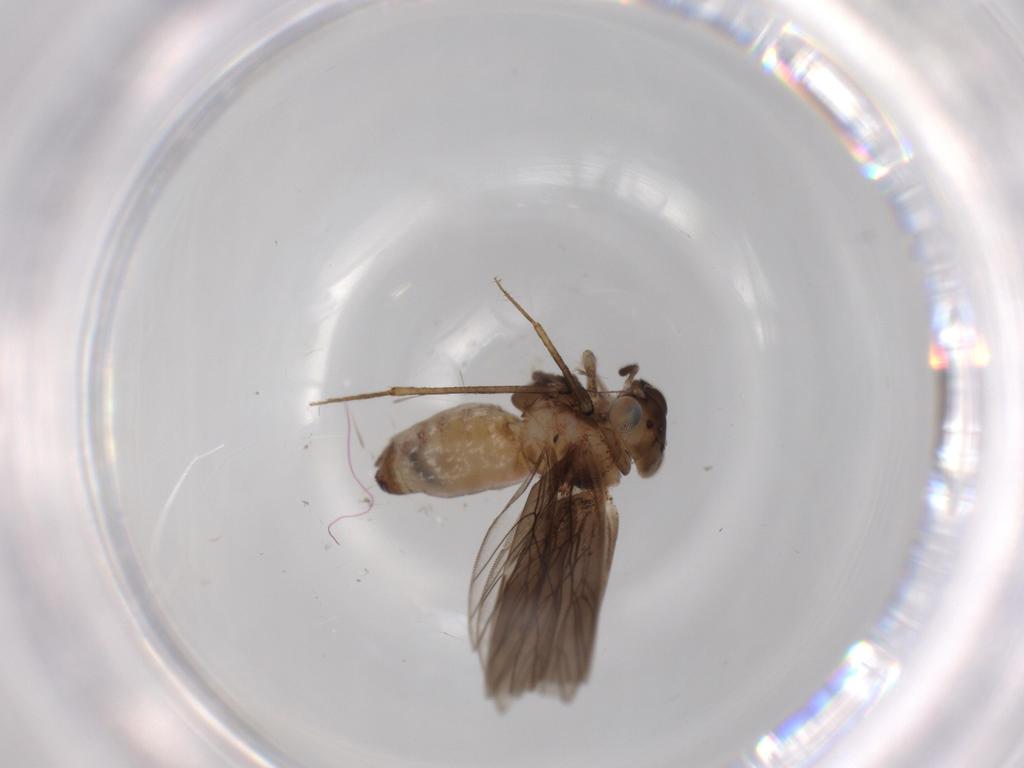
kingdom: Animalia
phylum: Arthropoda
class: Insecta
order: Psocodea
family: Lepidopsocidae
